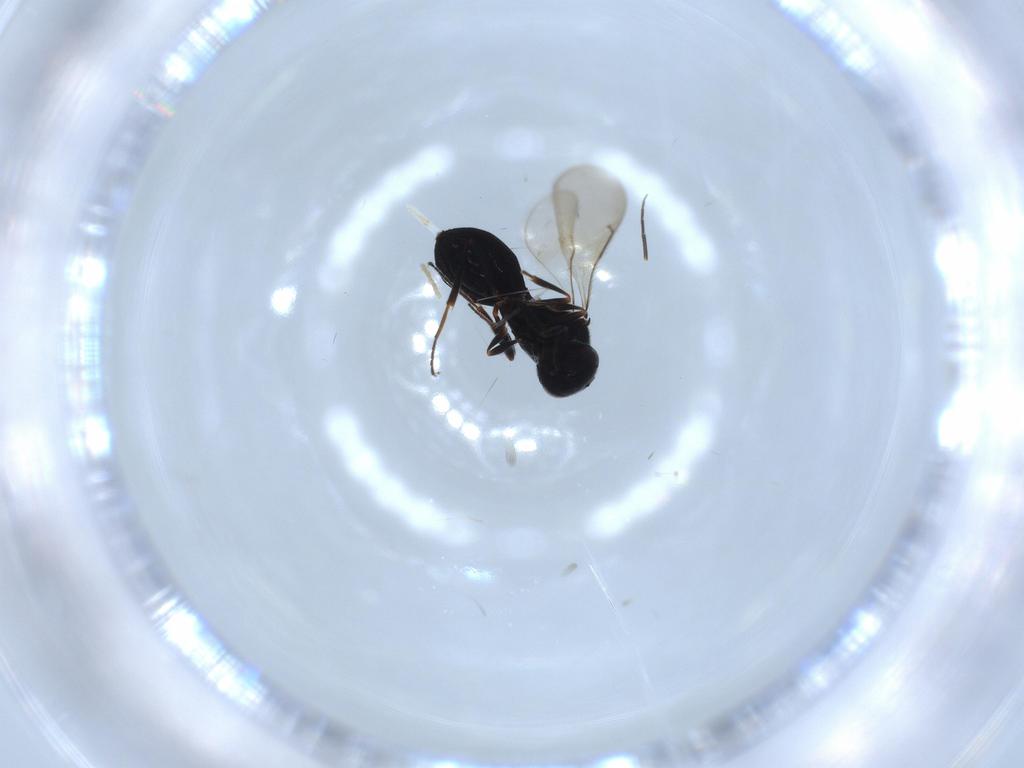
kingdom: Animalia
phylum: Arthropoda
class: Insecta
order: Hymenoptera
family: Scelionidae
